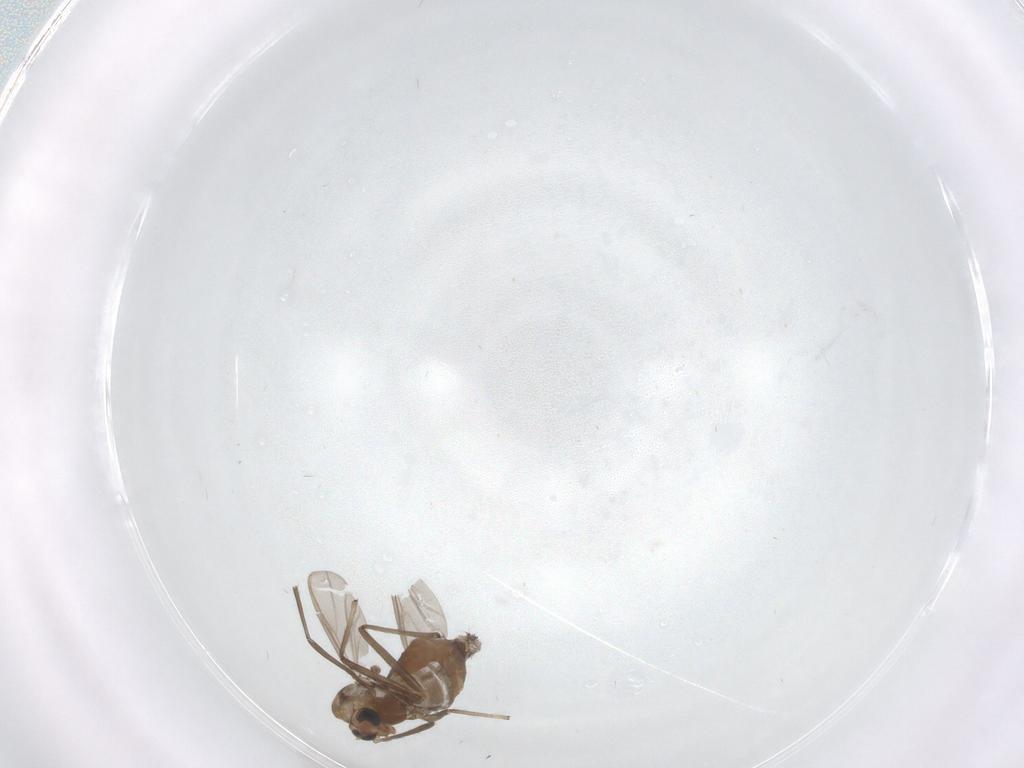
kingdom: Animalia
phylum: Arthropoda
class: Insecta
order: Diptera
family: Chironomidae
